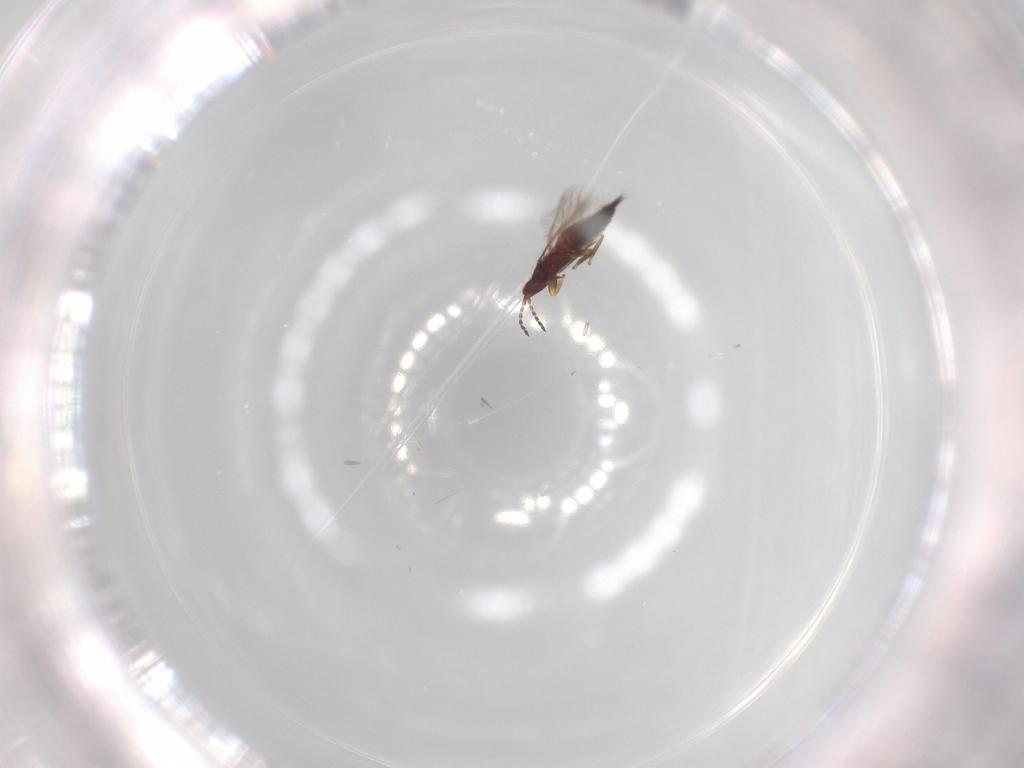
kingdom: Animalia
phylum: Arthropoda
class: Insecta
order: Thysanoptera
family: Phlaeothripidae
